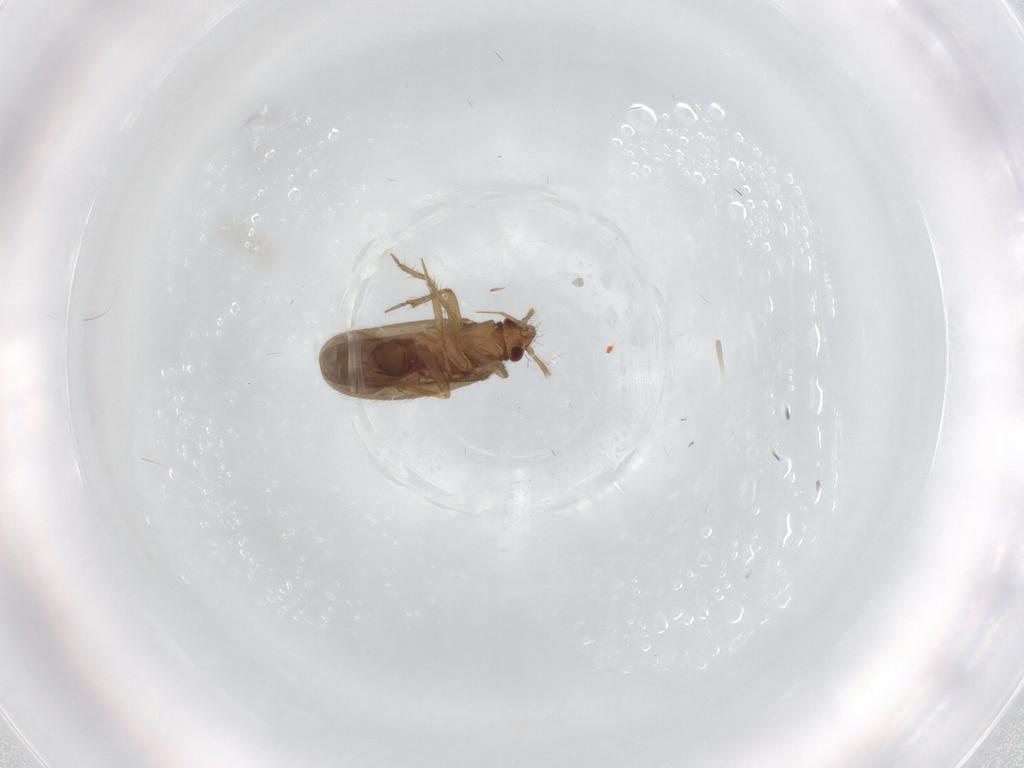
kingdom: Animalia
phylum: Arthropoda
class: Insecta
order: Hemiptera
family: Ceratocombidae
